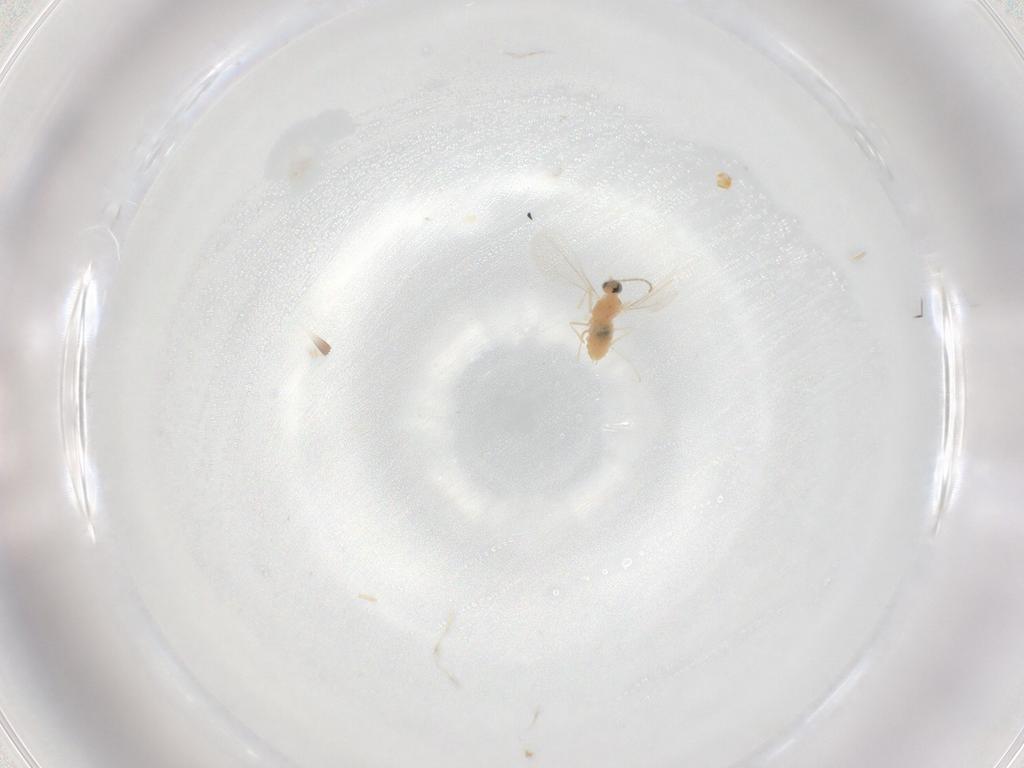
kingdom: Animalia
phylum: Arthropoda
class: Insecta
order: Diptera
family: Cecidomyiidae
